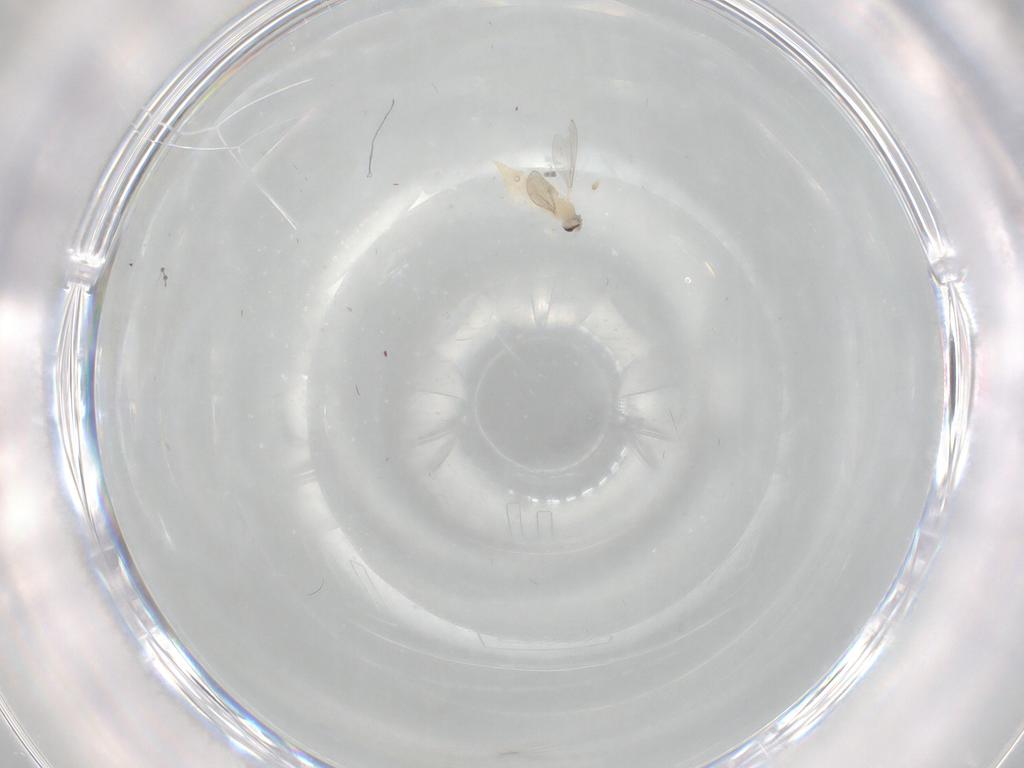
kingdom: Animalia
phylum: Arthropoda
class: Insecta
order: Diptera
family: Cecidomyiidae
